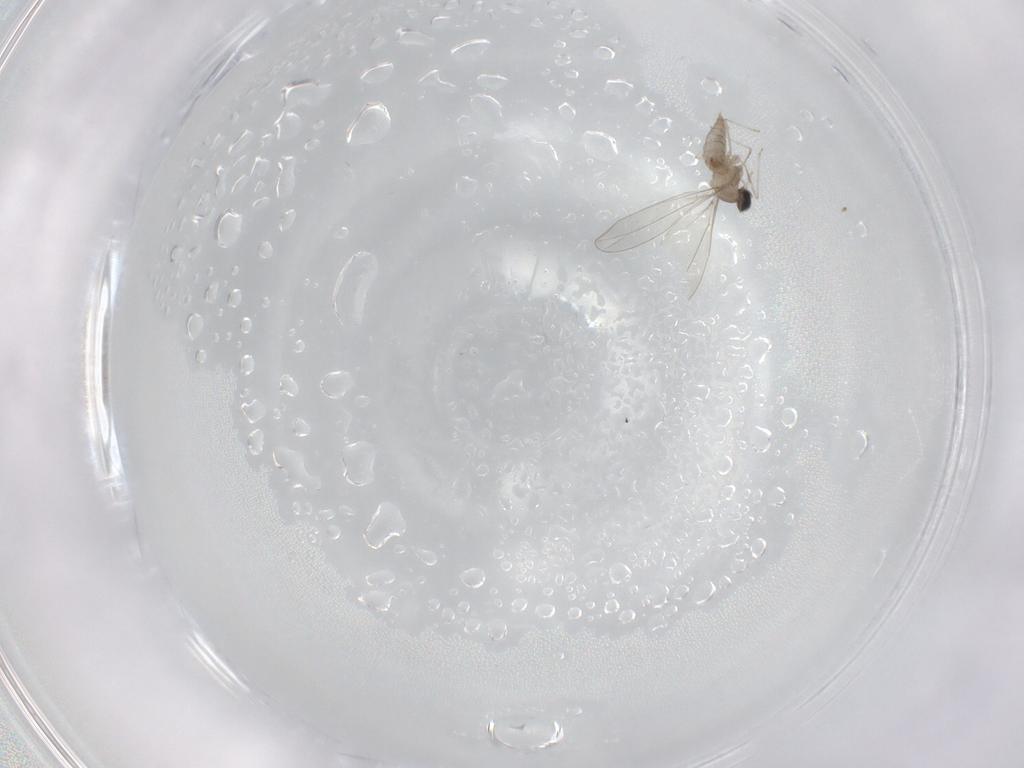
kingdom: Animalia
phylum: Arthropoda
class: Insecta
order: Diptera
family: Cecidomyiidae
